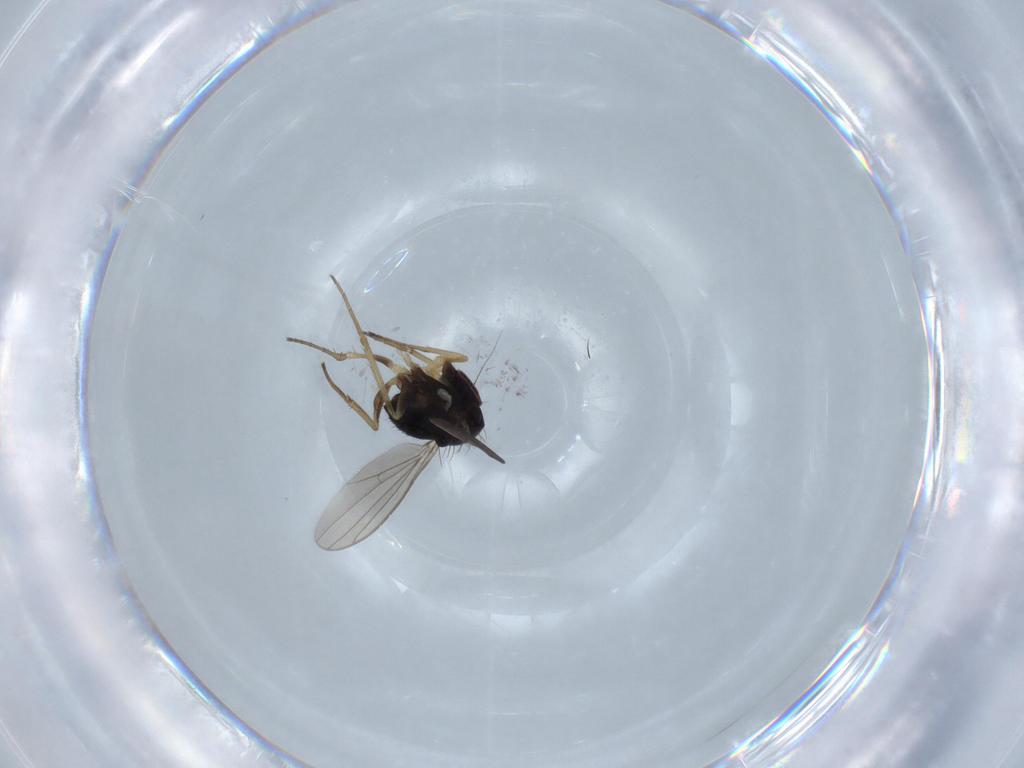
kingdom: Animalia
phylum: Arthropoda
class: Insecta
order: Diptera
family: Dolichopodidae
